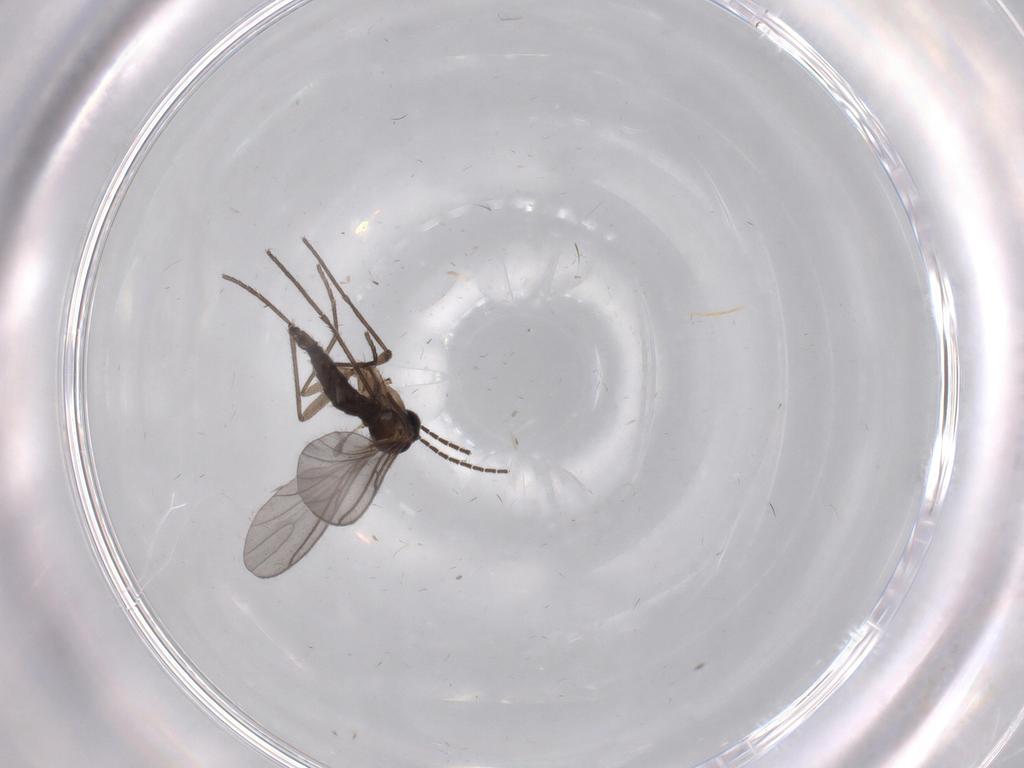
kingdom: Animalia
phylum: Arthropoda
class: Insecta
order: Diptera
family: Sciaridae
